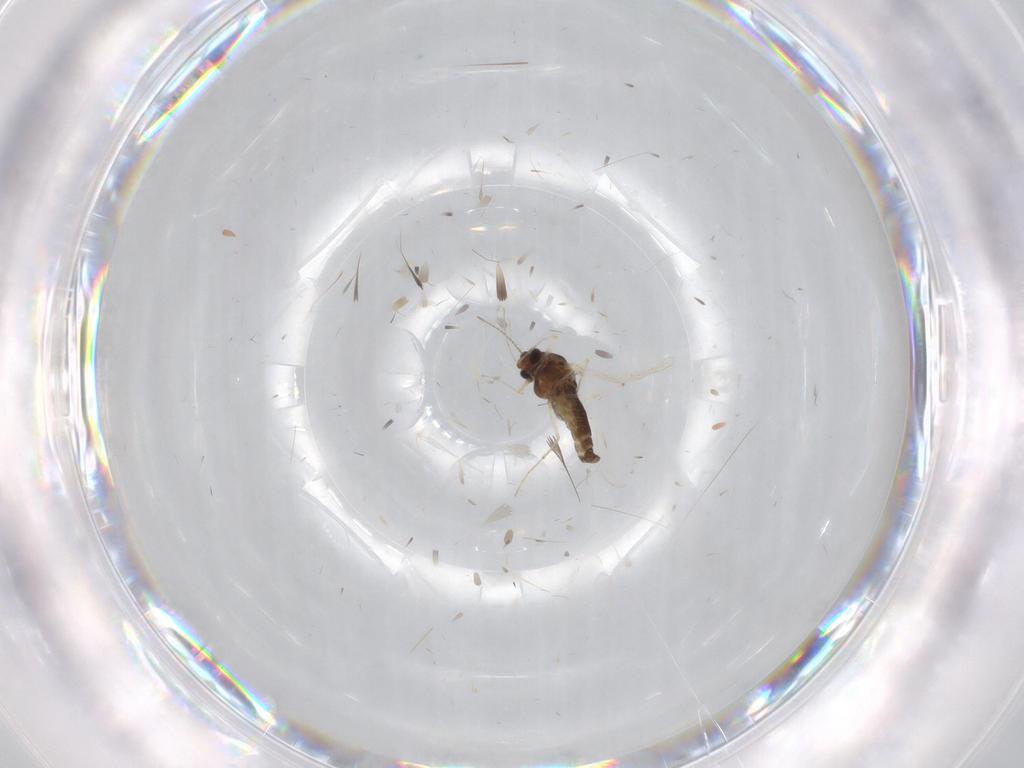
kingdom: Animalia
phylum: Arthropoda
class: Insecta
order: Diptera
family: Chironomidae
